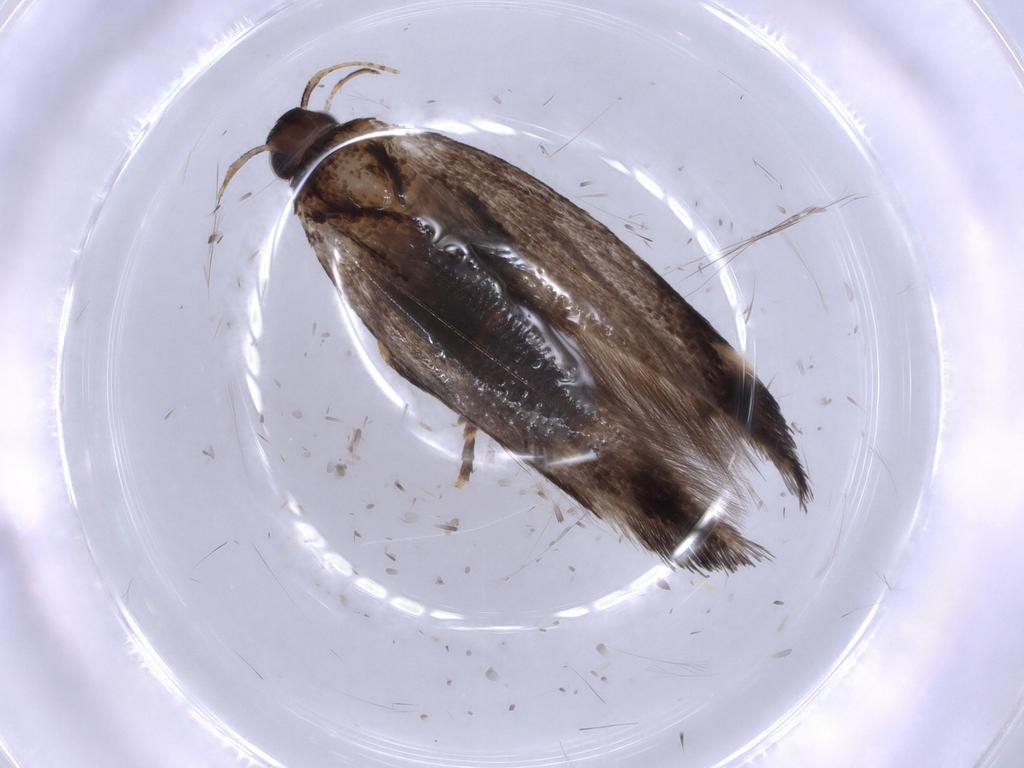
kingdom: Animalia
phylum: Arthropoda
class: Insecta
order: Lepidoptera
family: Cosmopterigidae
